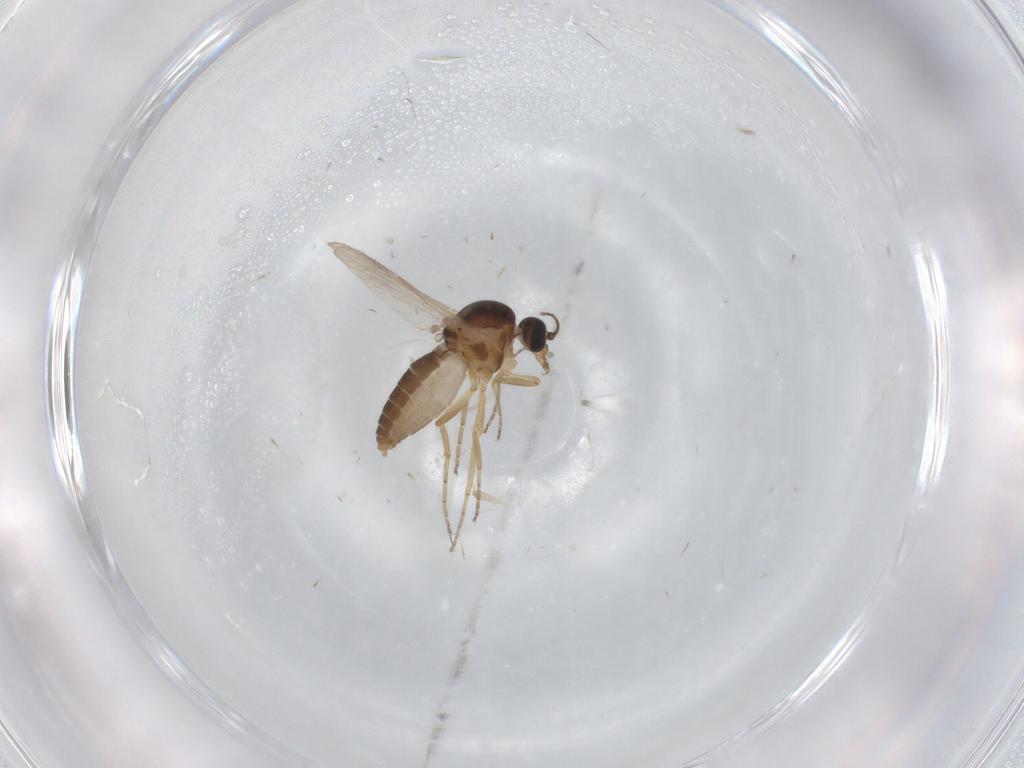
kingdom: Animalia
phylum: Arthropoda
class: Insecta
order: Diptera
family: Ceratopogonidae
